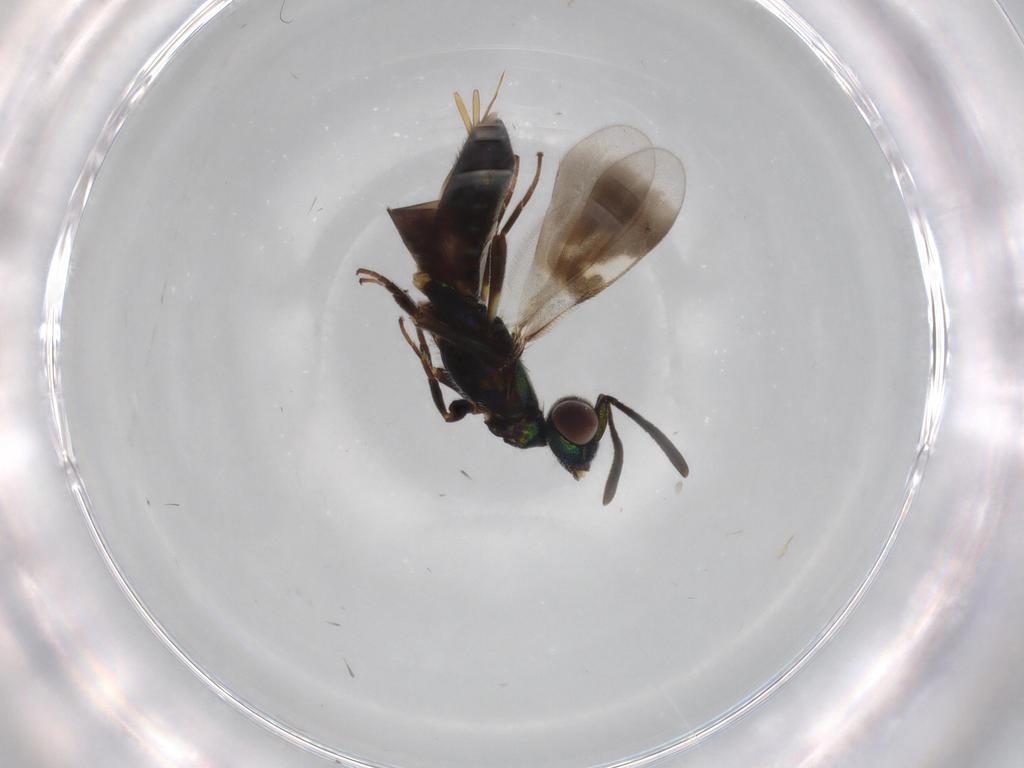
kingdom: Animalia
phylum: Arthropoda
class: Insecta
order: Hymenoptera
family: Eupelmidae
